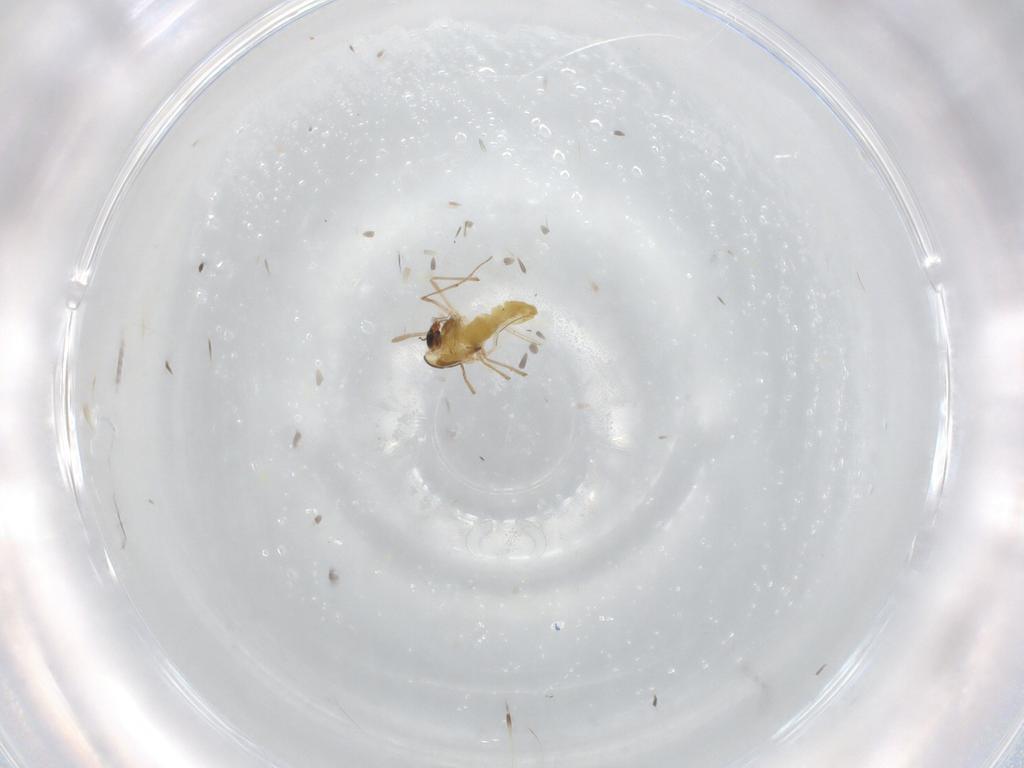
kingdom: Animalia
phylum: Arthropoda
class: Insecta
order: Diptera
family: Chironomidae
